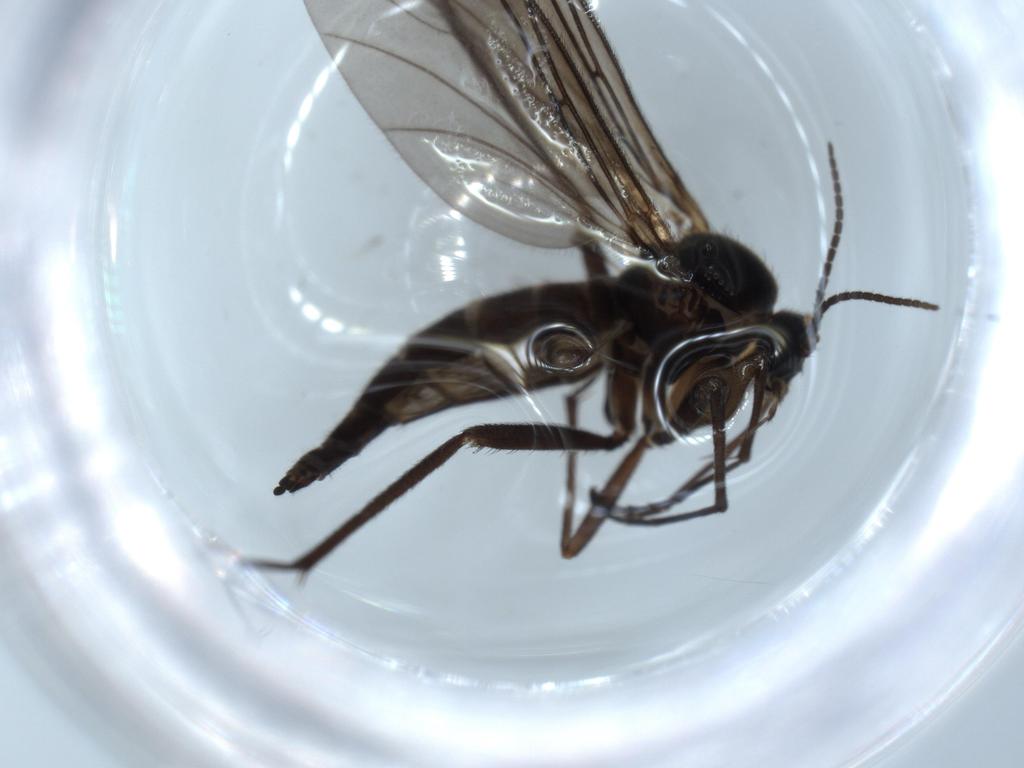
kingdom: Animalia
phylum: Arthropoda
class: Insecta
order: Diptera
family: Sciaridae
